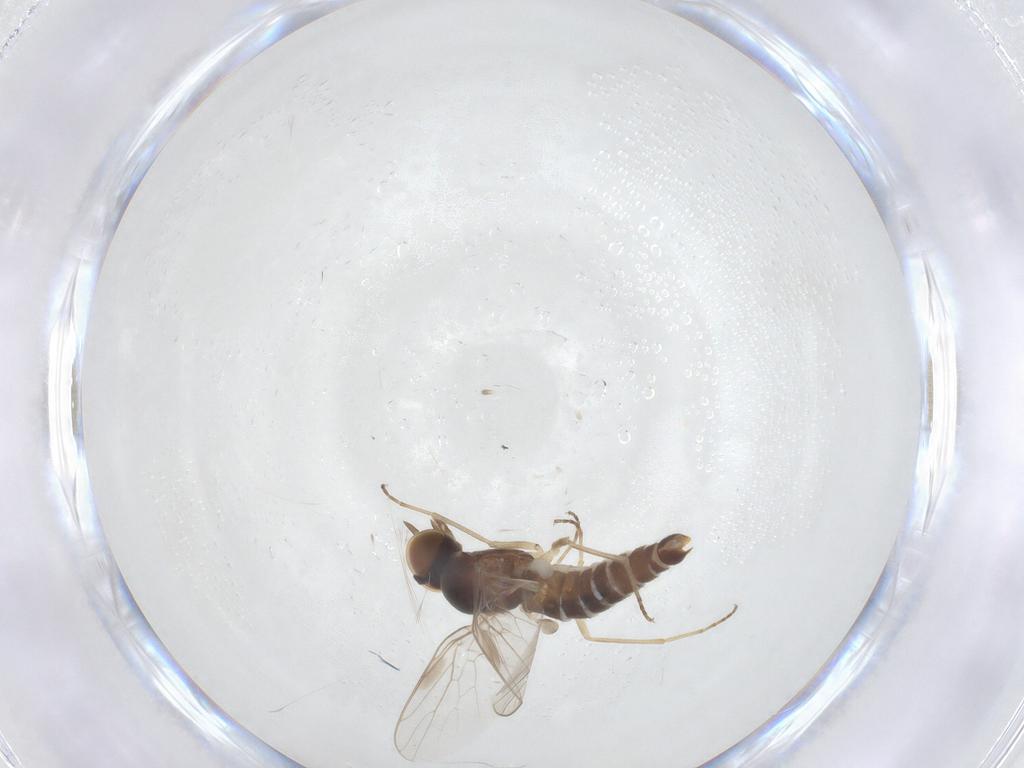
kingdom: Animalia
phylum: Arthropoda
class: Insecta
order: Diptera
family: Scenopinidae
